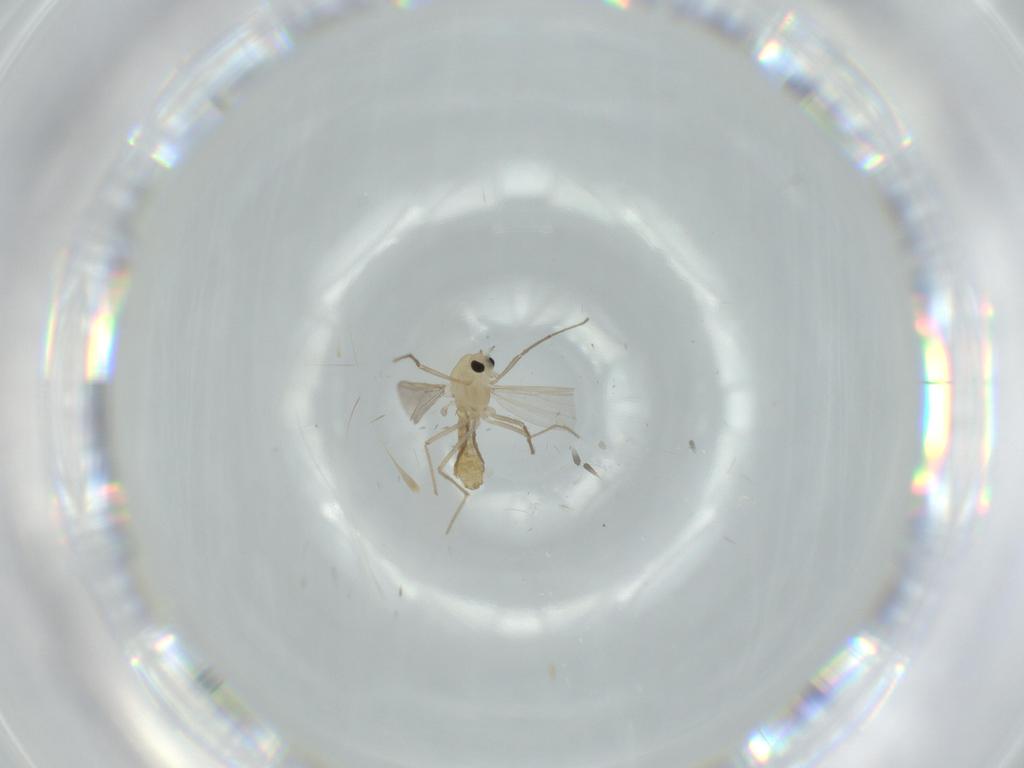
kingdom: Animalia
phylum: Arthropoda
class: Insecta
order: Diptera
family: Chironomidae
